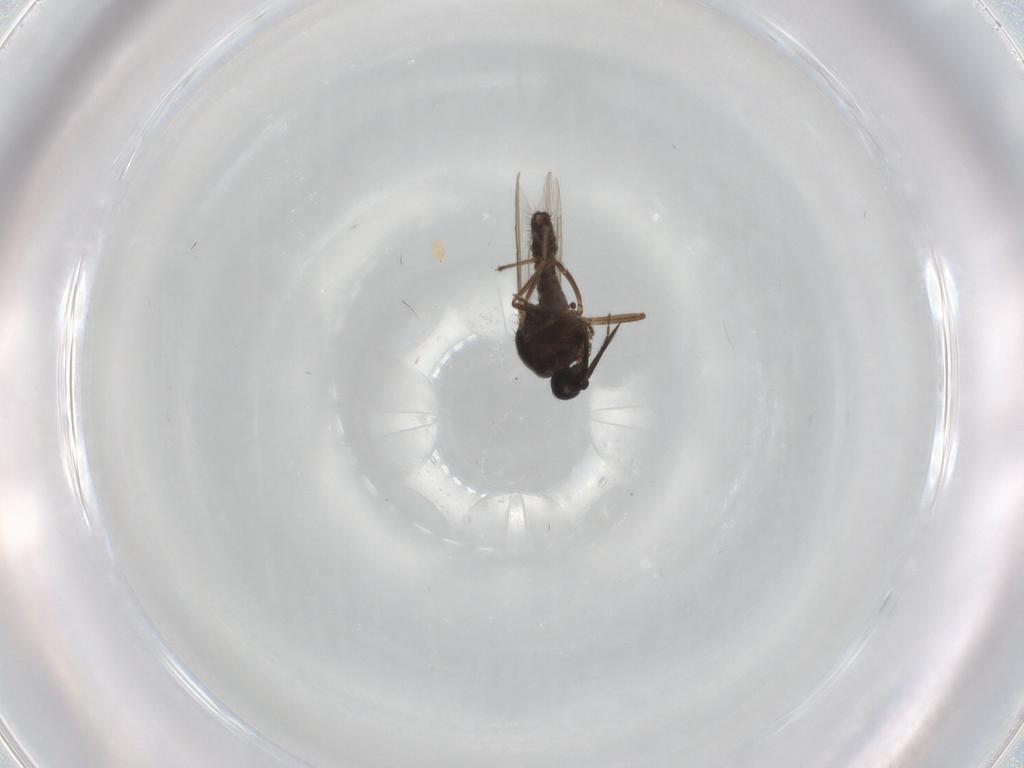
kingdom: Animalia
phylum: Arthropoda
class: Insecta
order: Diptera
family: Ceratopogonidae
